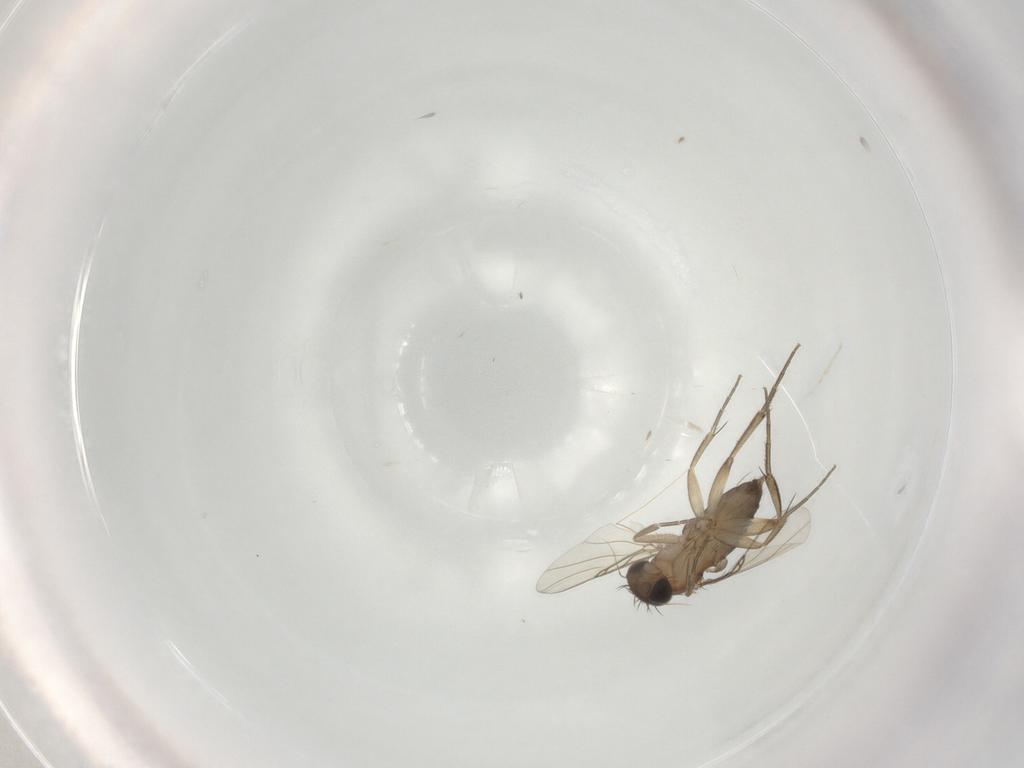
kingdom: Animalia
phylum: Arthropoda
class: Insecta
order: Diptera
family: Phoridae
